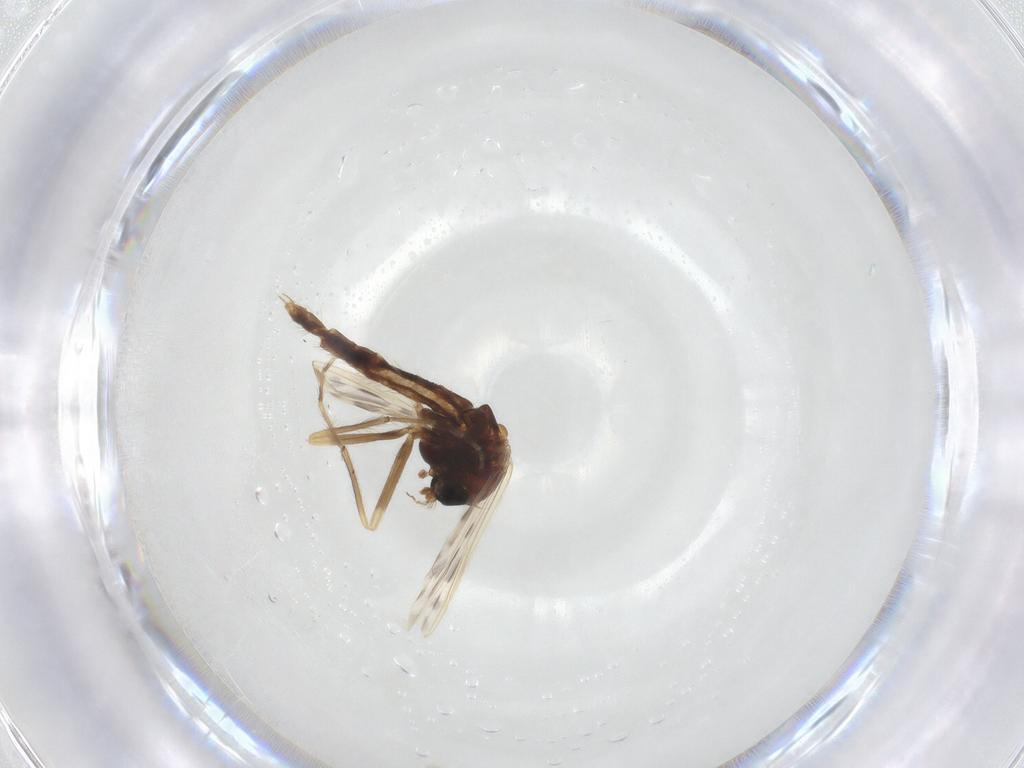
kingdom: Animalia
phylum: Arthropoda
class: Insecta
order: Diptera
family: Chironomidae
